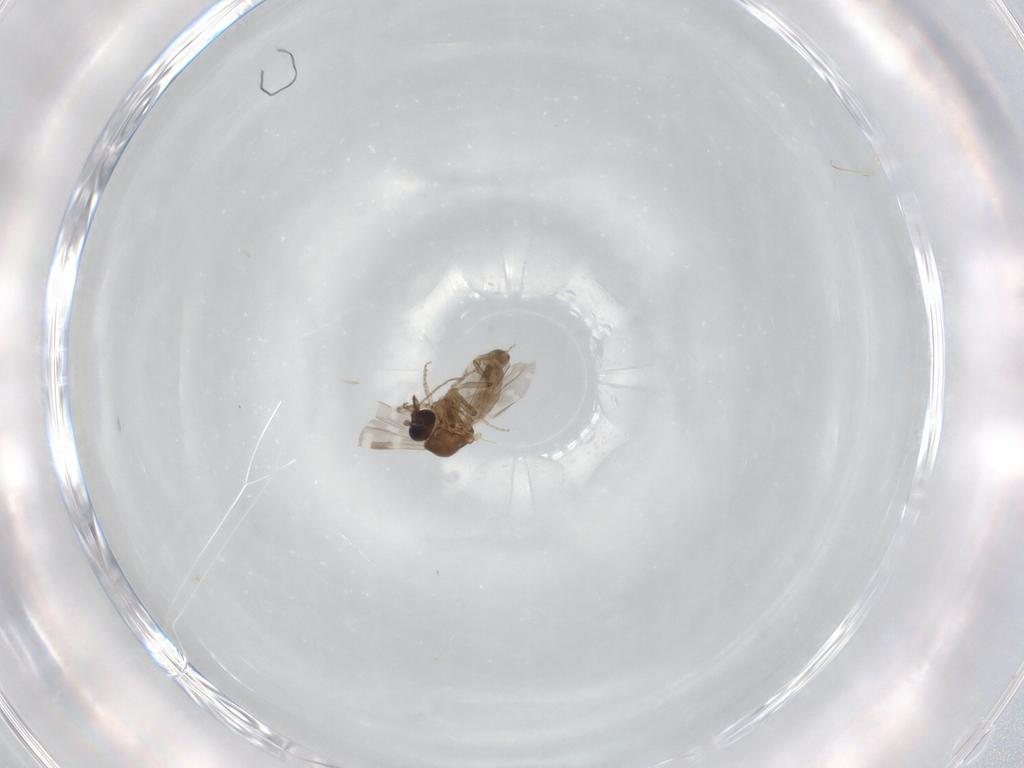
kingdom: Animalia
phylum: Arthropoda
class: Insecta
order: Diptera
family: Ceratopogonidae
